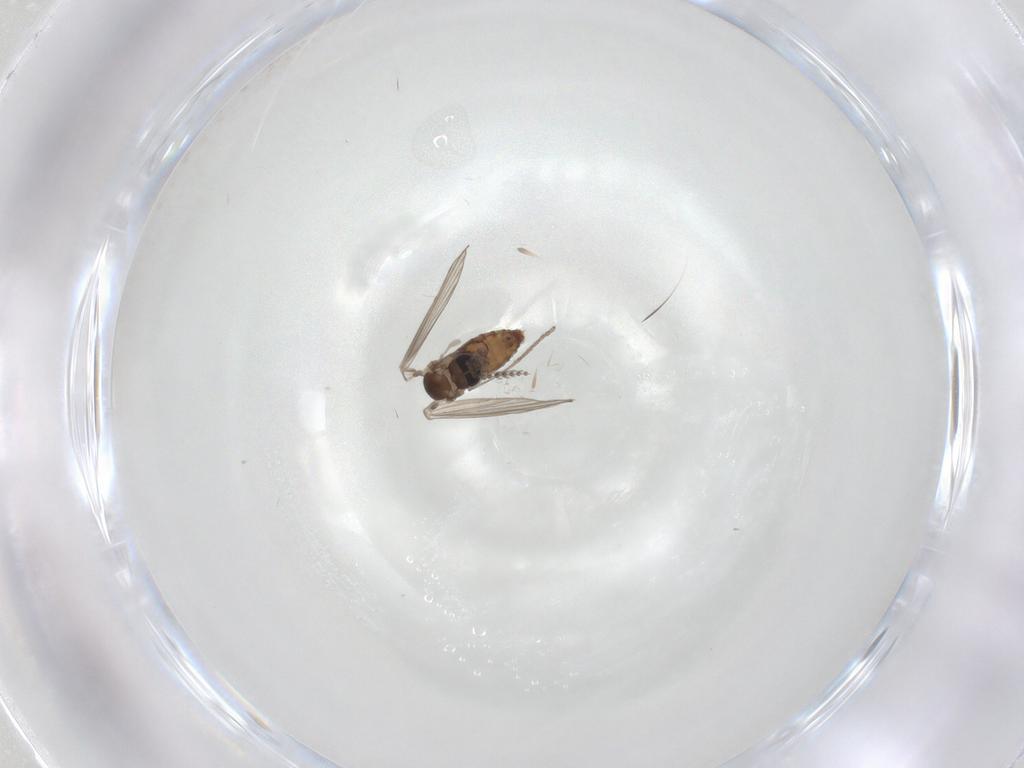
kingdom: Animalia
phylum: Arthropoda
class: Insecta
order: Diptera
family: Psychodidae
